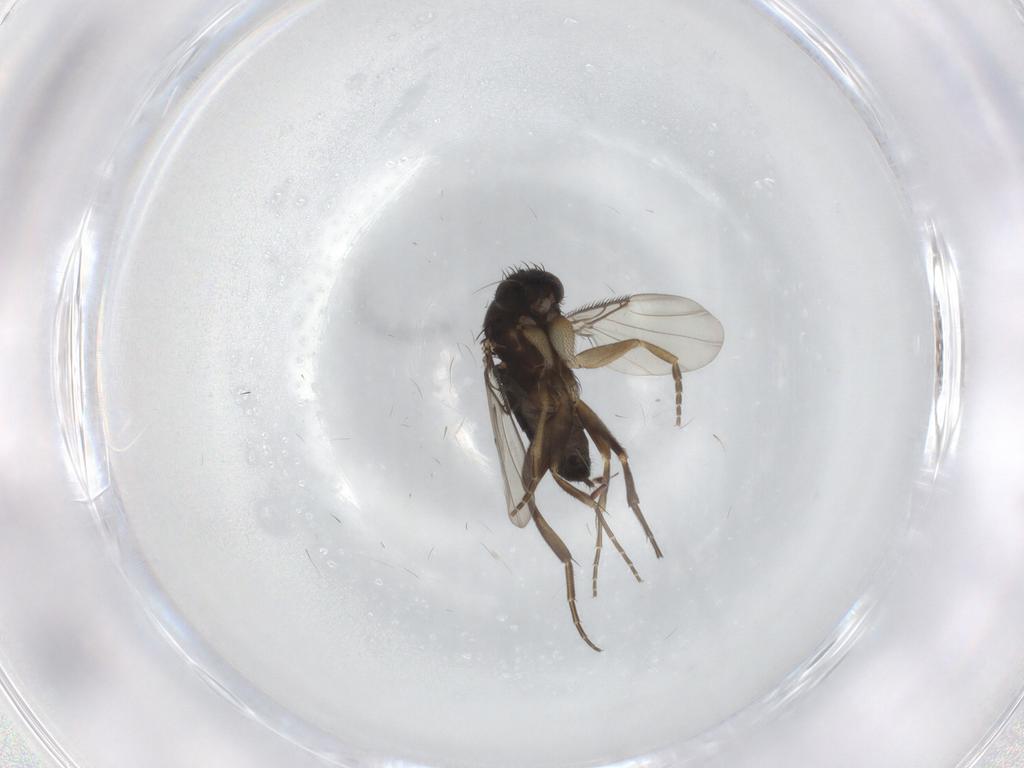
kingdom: Animalia
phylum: Arthropoda
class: Insecta
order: Diptera
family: Phoridae
